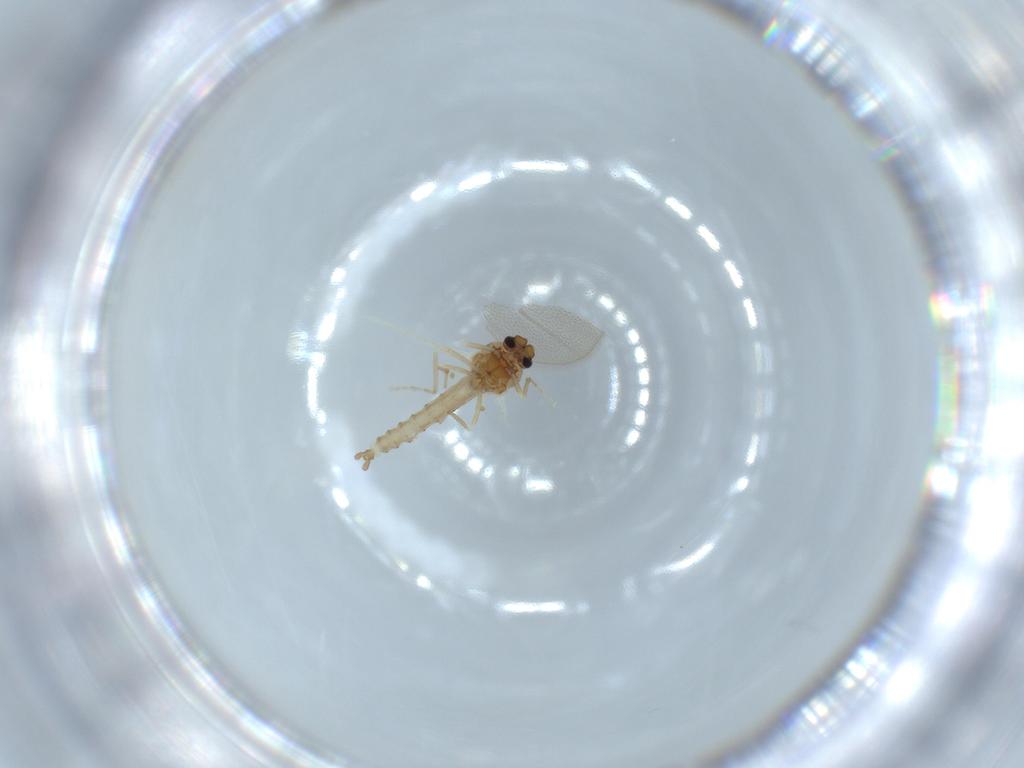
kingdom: Animalia
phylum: Arthropoda
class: Insecta
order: Diptera
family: Ceratopogonidae
